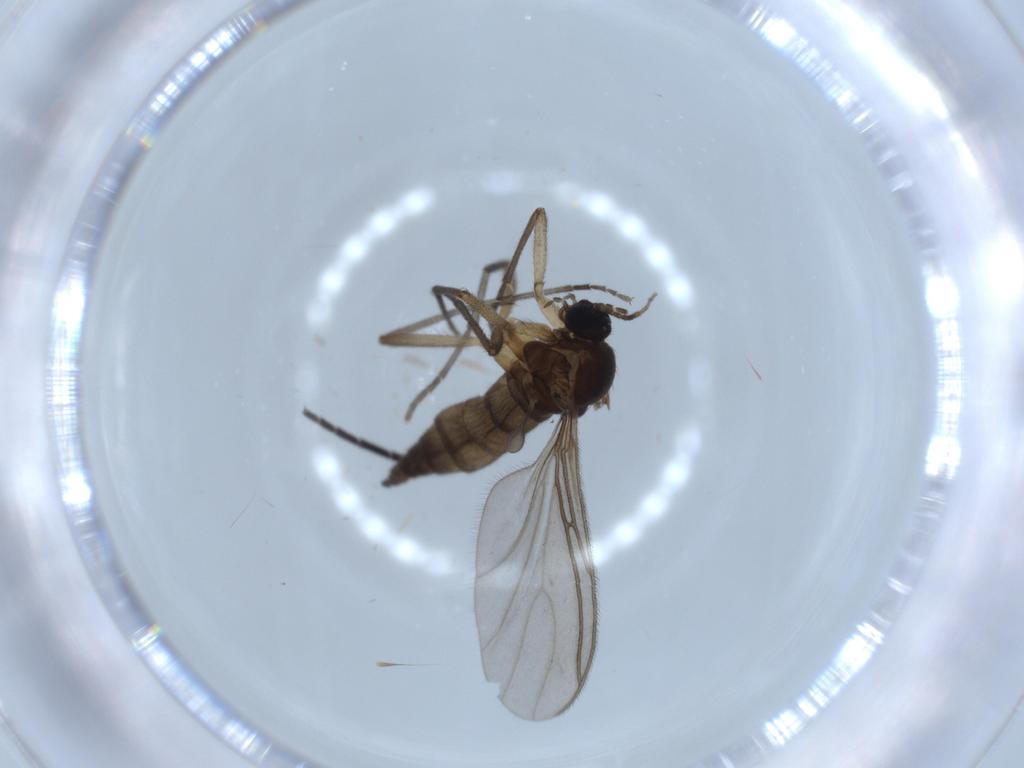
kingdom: Animalia
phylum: Arthropoda
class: Insecta
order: Diptera
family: Sciaridae
